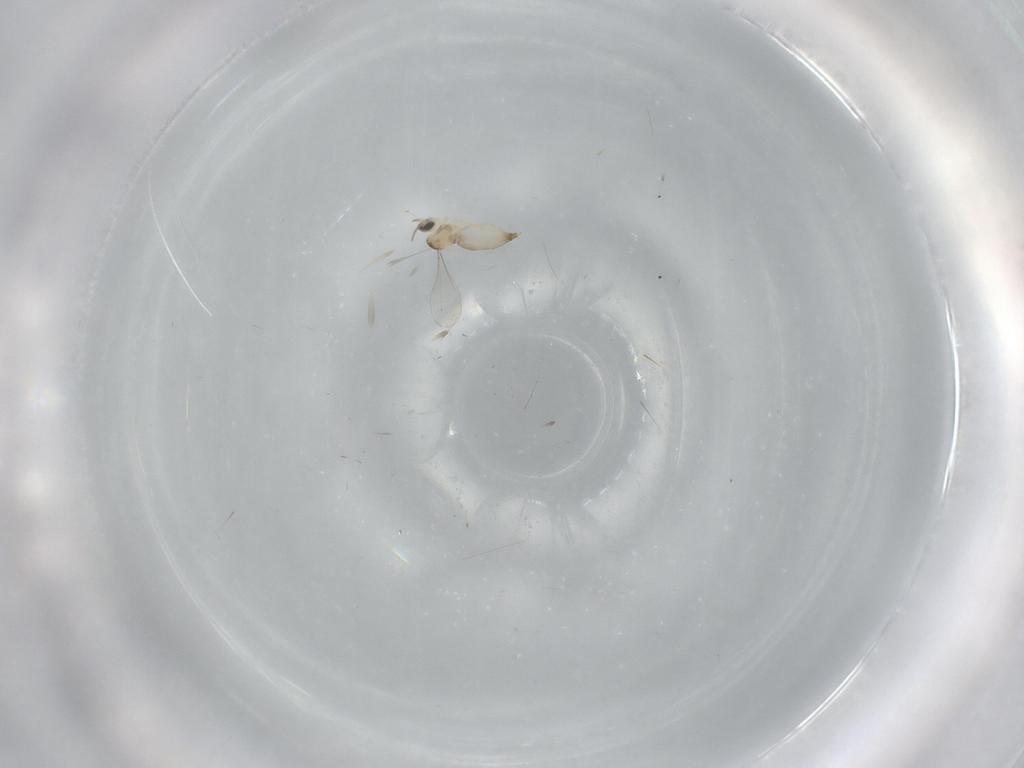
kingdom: Animalia
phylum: Arthropoda
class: Insecta
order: Diptera
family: Milichiidae
